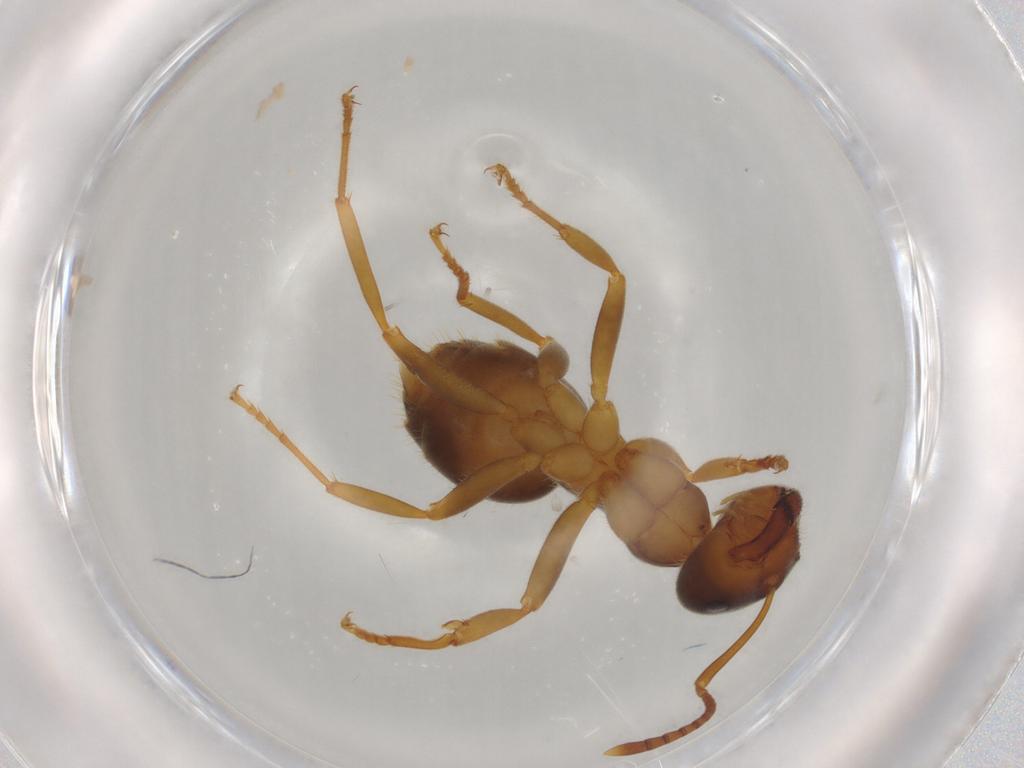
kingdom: Animalia
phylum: Arthropoda
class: Insecta
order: Hymenoptera
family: Formicidae
